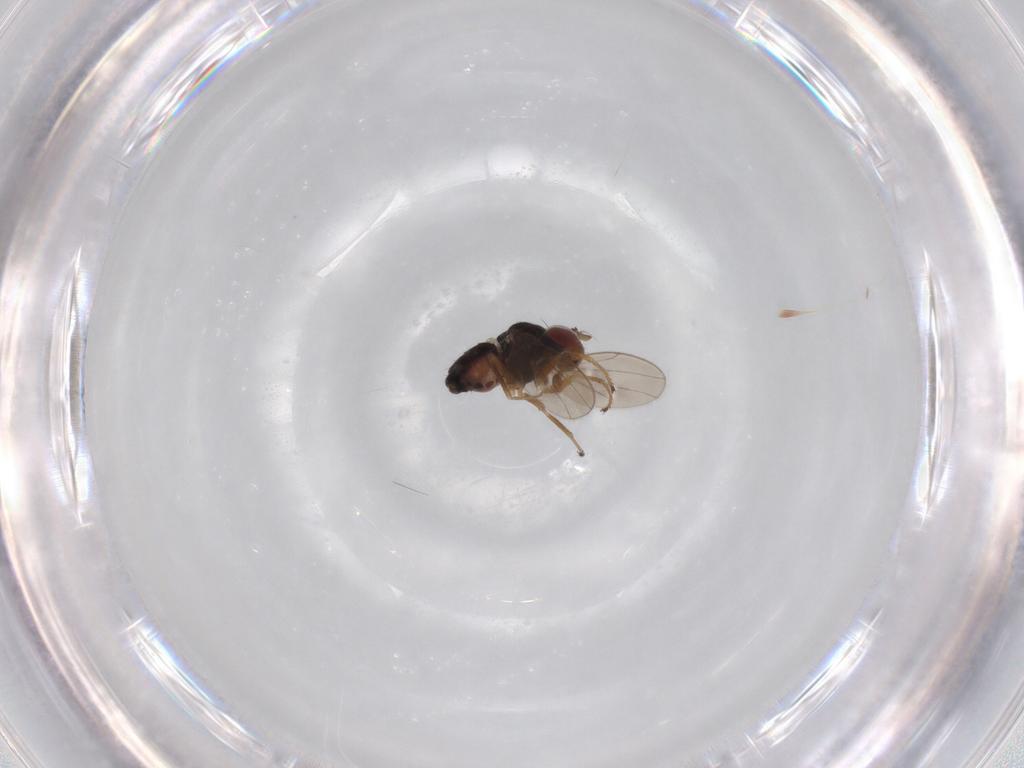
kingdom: Animalia
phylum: Arthropoda
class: Insecta
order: Diptera
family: Ephydridae
